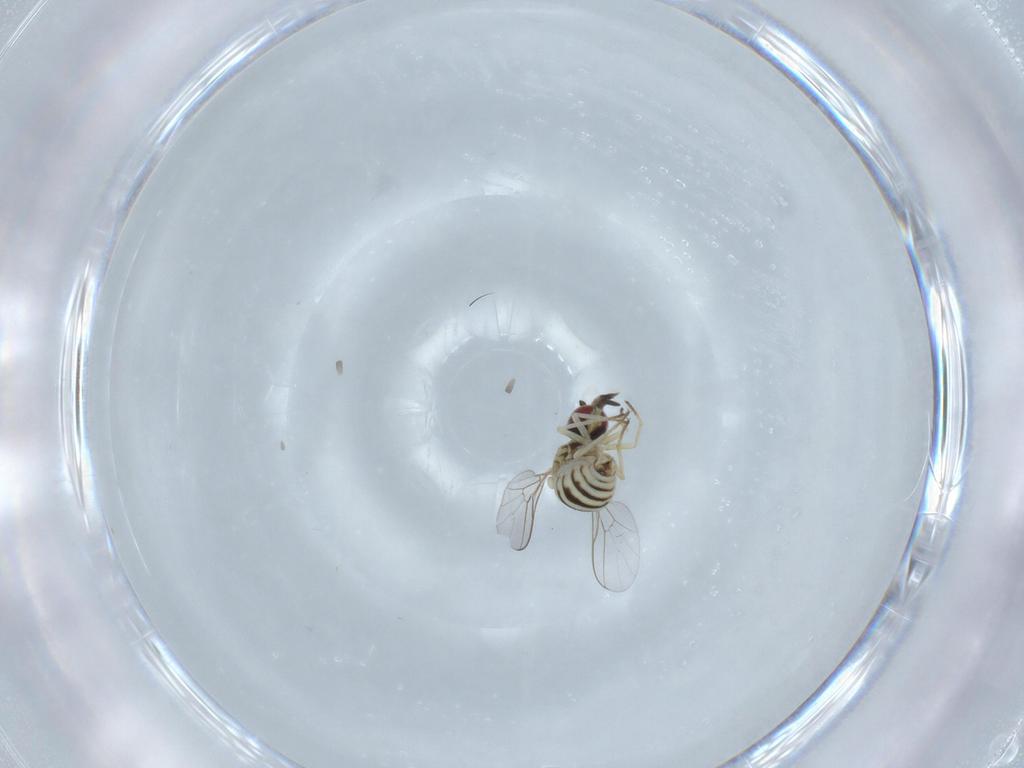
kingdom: Animalia
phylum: Arthropoda
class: Insecta
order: Diptera
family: Bombyliidae
